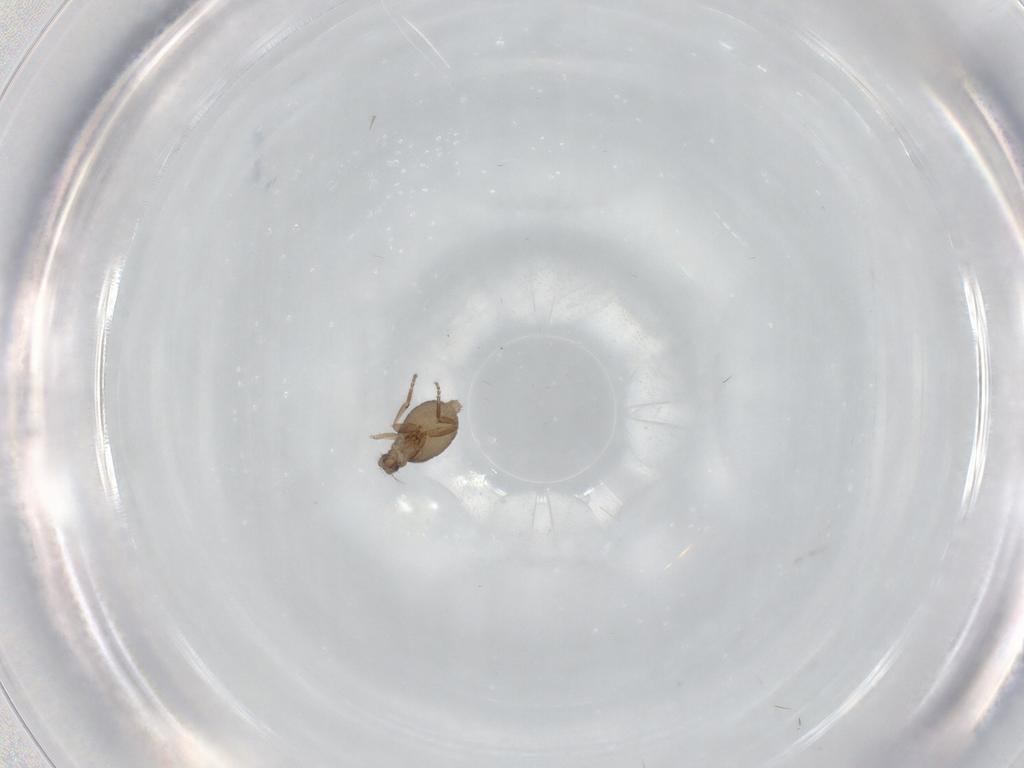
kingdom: Animalia
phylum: Arthropoda
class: Insecta
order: Diptera
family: Phoridae
